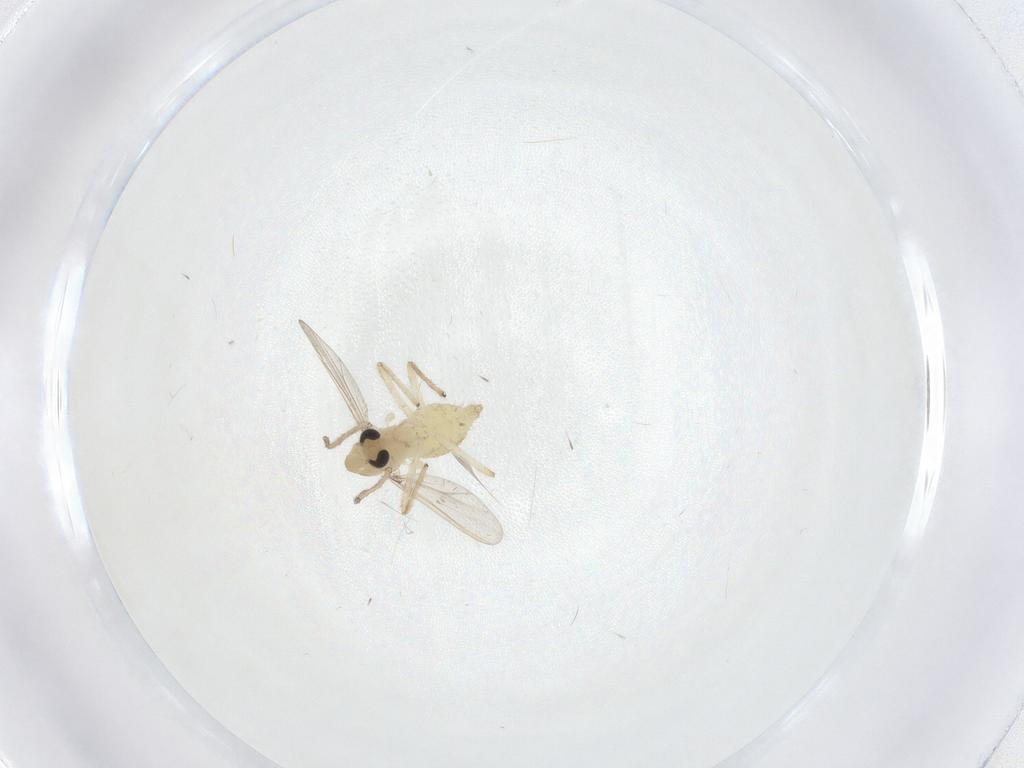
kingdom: Animalia
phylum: Arthropoda
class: Insecta
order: Diptera
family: Chironomidae
